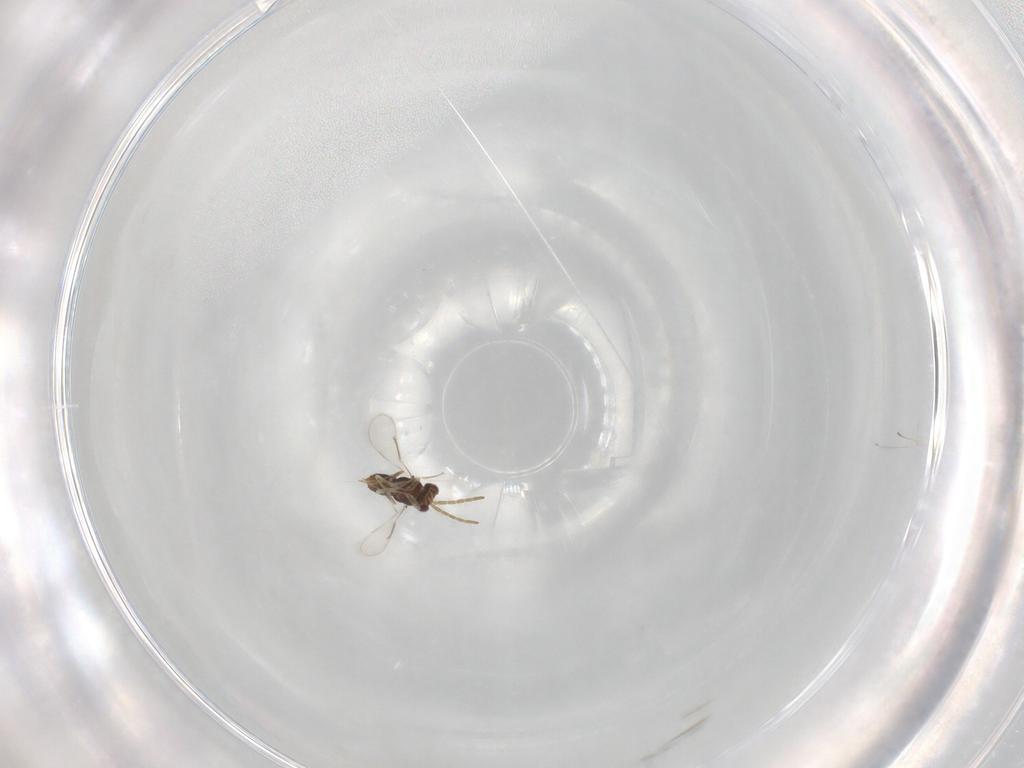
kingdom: Animalia
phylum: Arthropoda
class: Insecta
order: Hymenoptera
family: Aphelinidae
